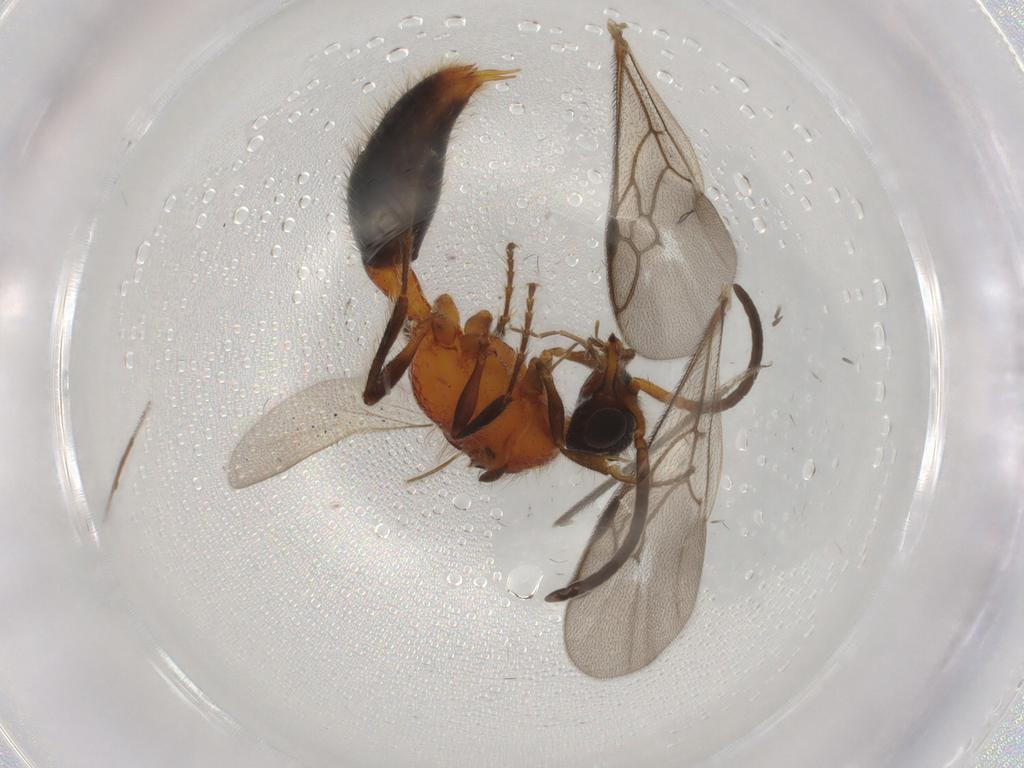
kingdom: Animalia
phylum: Arthropoda
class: Insecta
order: Hymenoptera
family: Mutillidae
